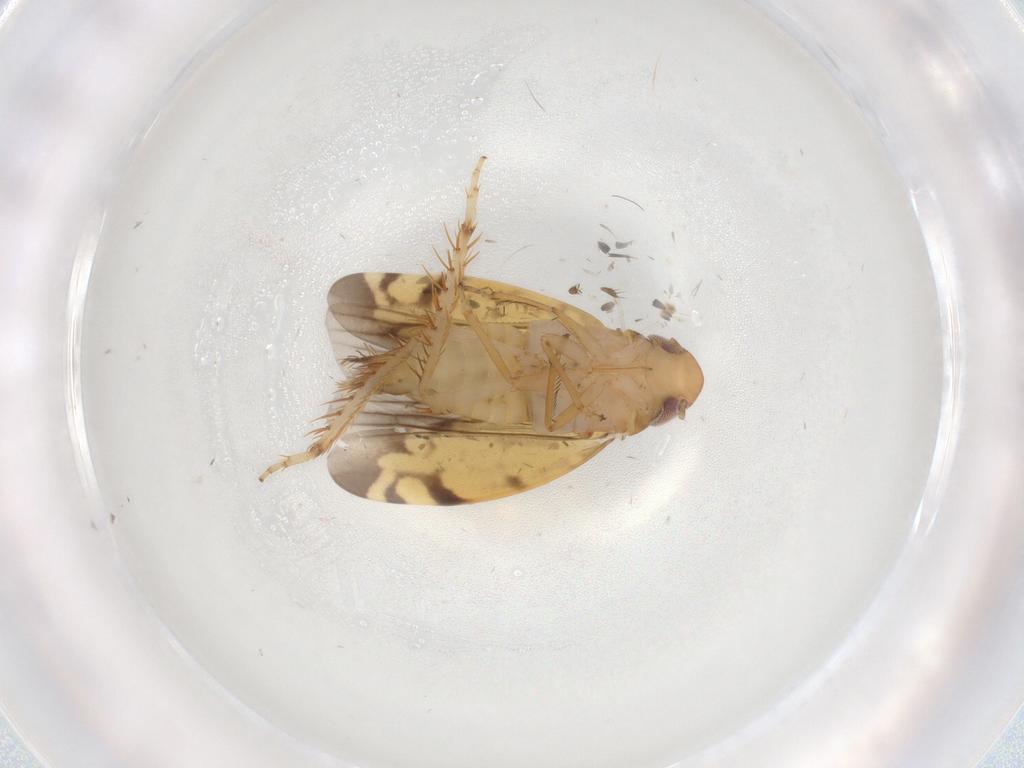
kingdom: Animalia
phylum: Arthropoda
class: Insecta
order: Hemiptera
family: Cicadellidae
